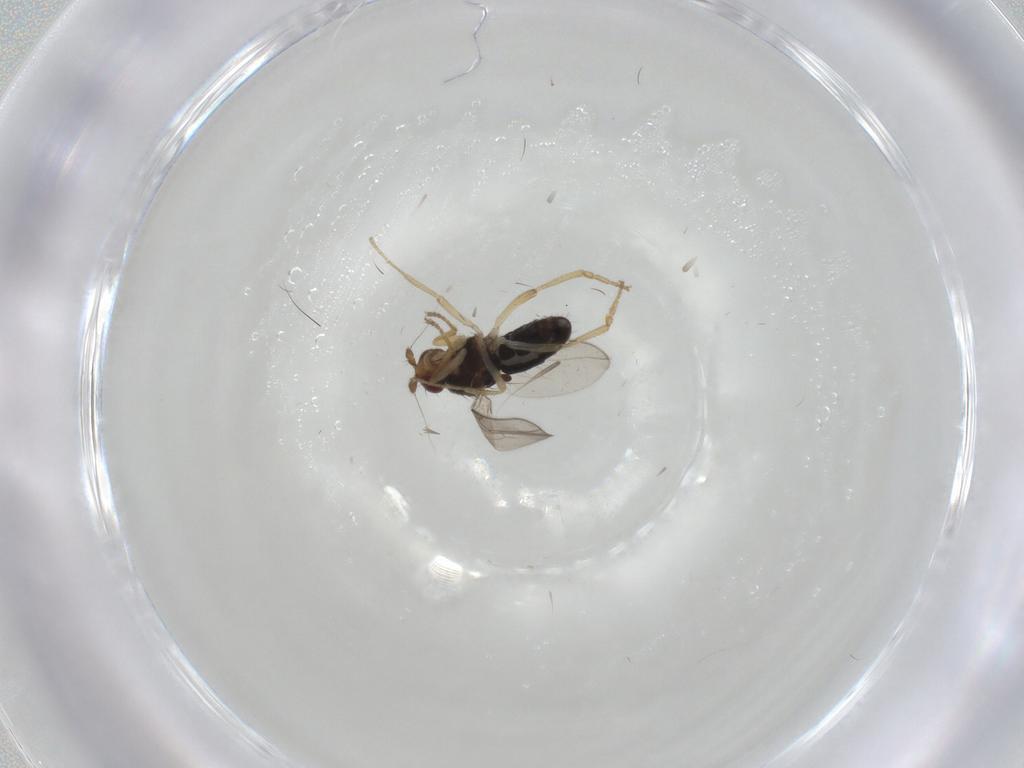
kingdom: Animalia
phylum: Arthropoda
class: Insecta
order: Diptera
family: Sphaeroceridae
